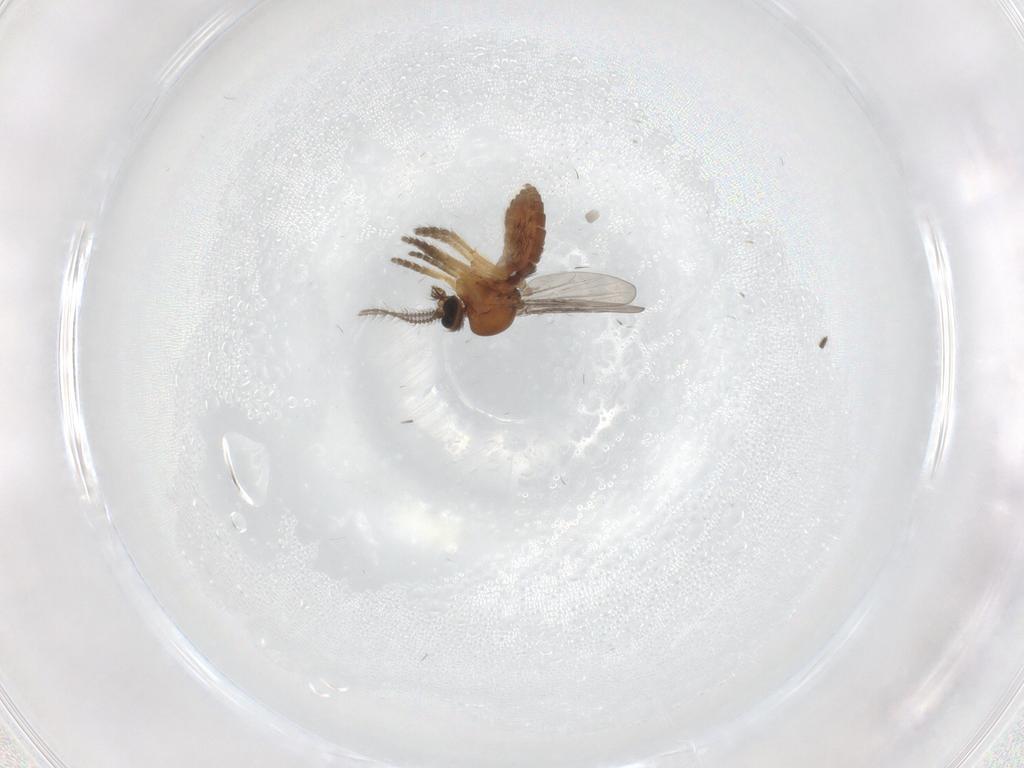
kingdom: Animalia
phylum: Arthropoda
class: Insecta
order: Diptera
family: Ceratopogonidae
